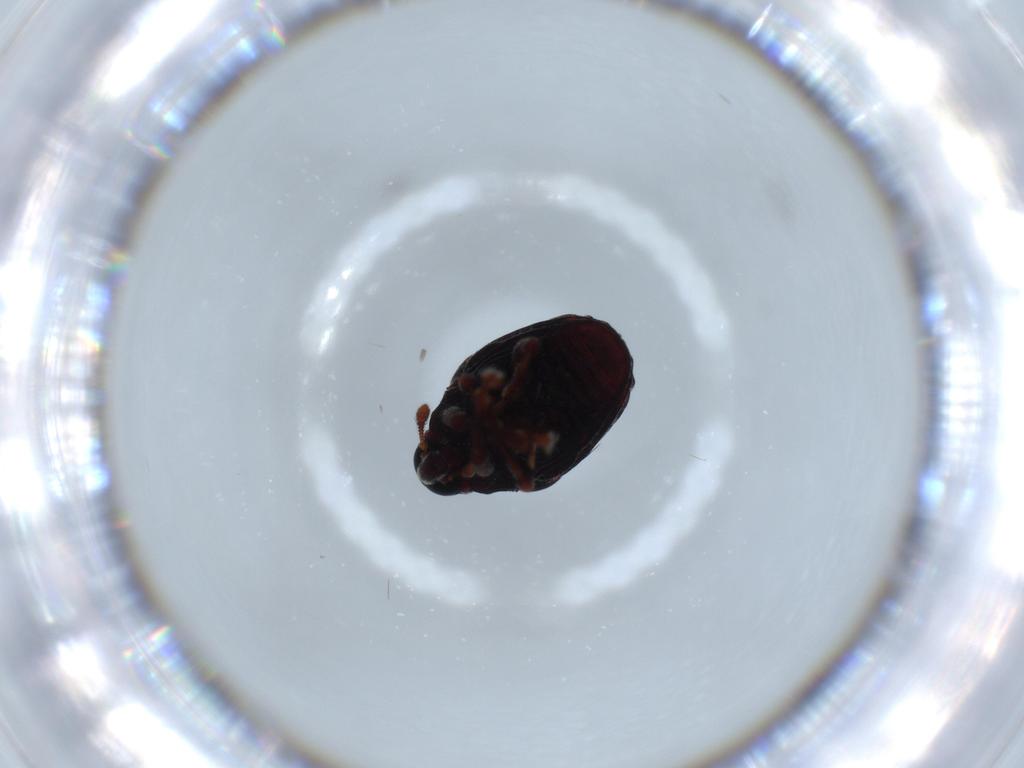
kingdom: Animalia
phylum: Arthropoda
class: Insecta
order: Coleoptera
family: Curculionidae
